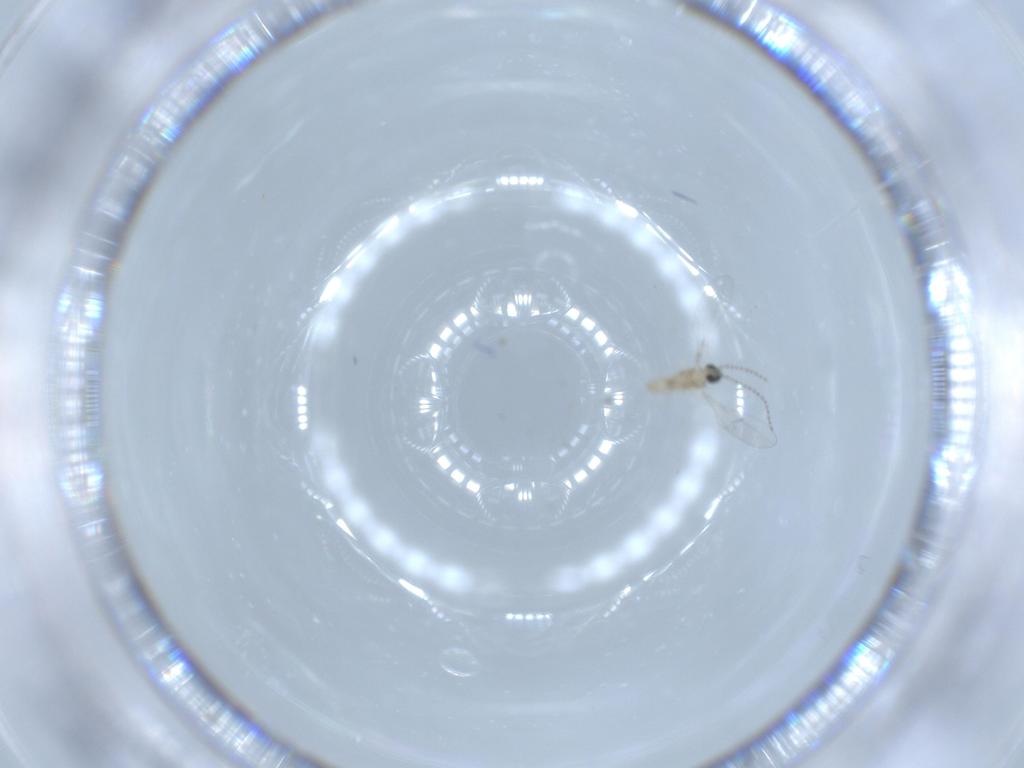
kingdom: Animalia
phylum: Arthropoda
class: Insecta
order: Diptera
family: Cecidomyiidae
